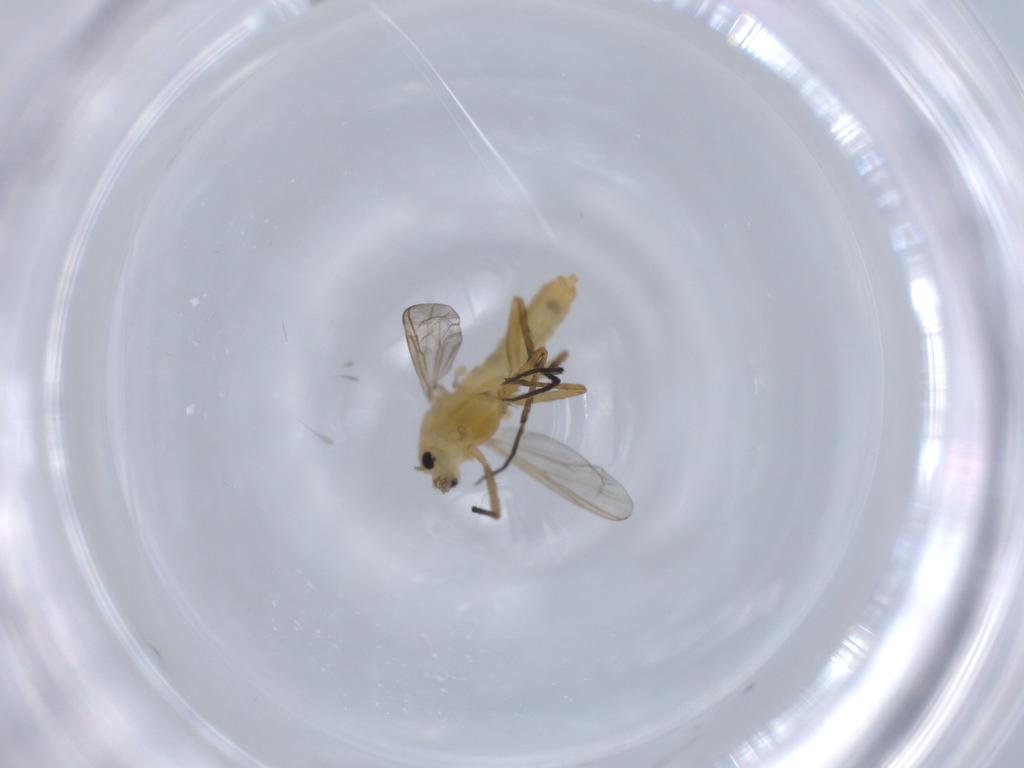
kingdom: Animalia
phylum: Arthropoda
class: Insecta
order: Diptera
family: Chironomidae
